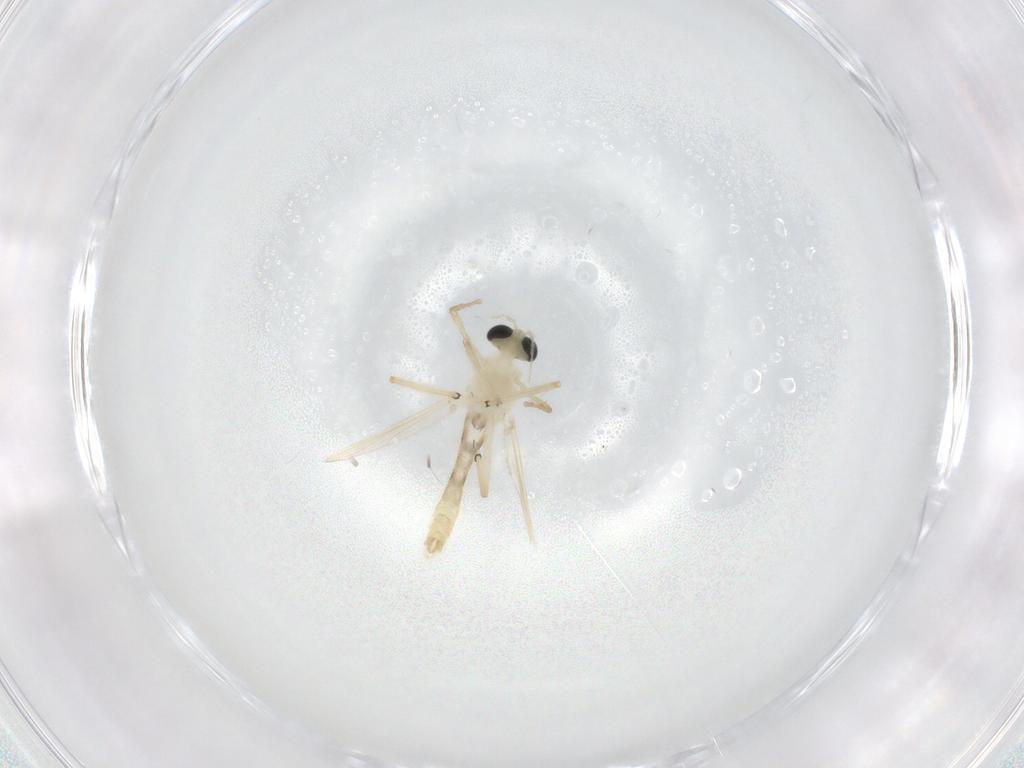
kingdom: Animalia
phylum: Arthropoda
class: Insecta
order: Diptera
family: Chironomidae
